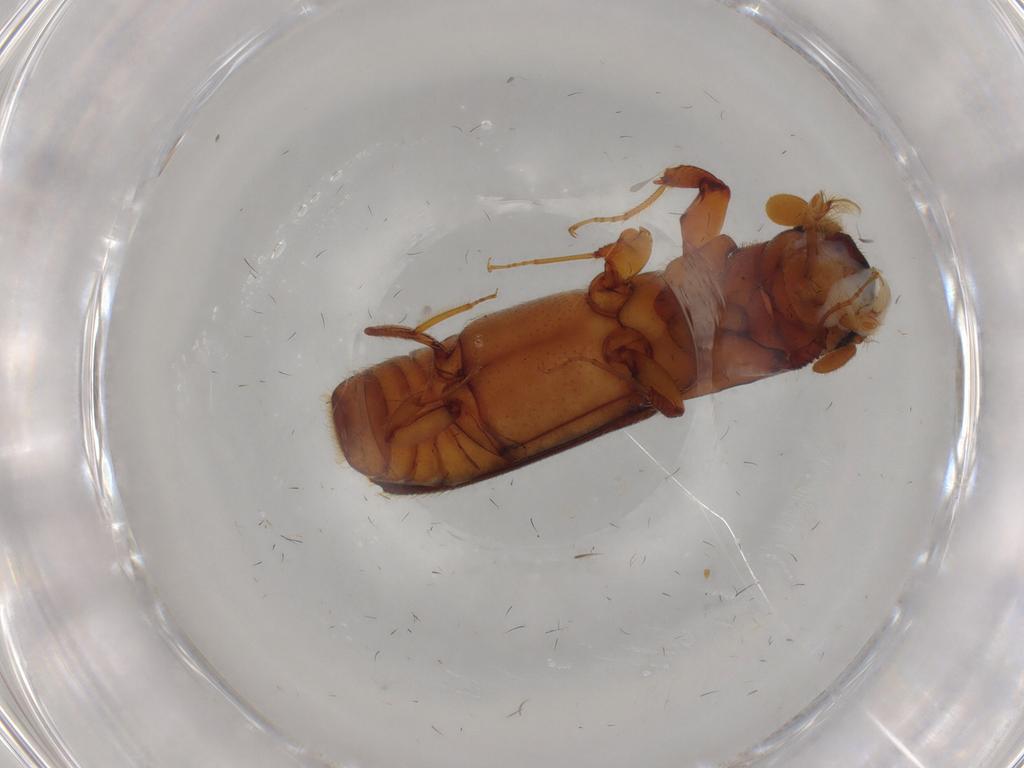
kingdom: Animalia
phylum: Arthropoda
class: Insecta
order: Coleoptera
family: Curculionidae
